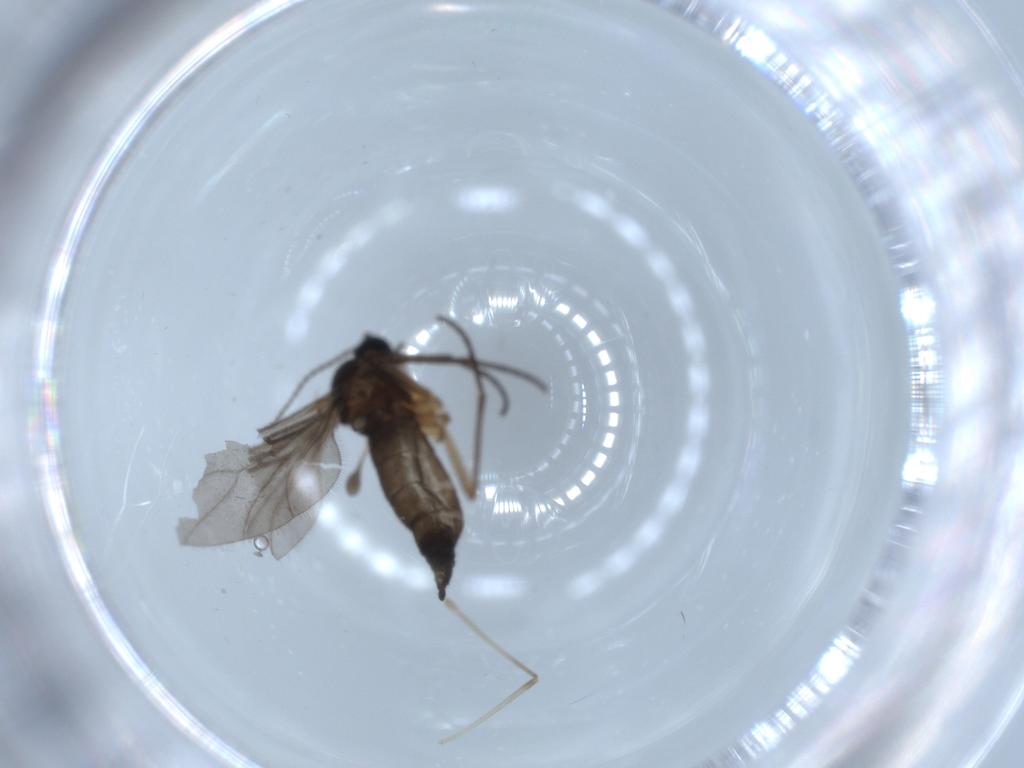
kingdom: Animalia
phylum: Arthropoda
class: Insecta
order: Diptera
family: Cecidomyiidae
